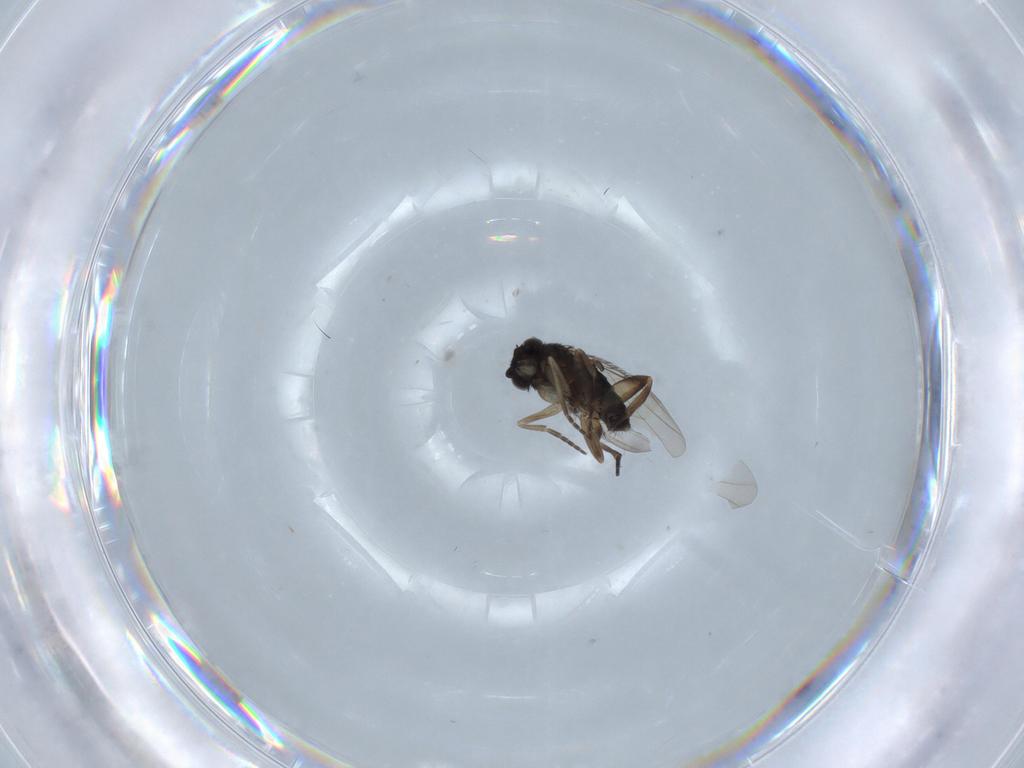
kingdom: Animalia
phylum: Arthropoda
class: Insecta
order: Diptera
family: Phoridae
